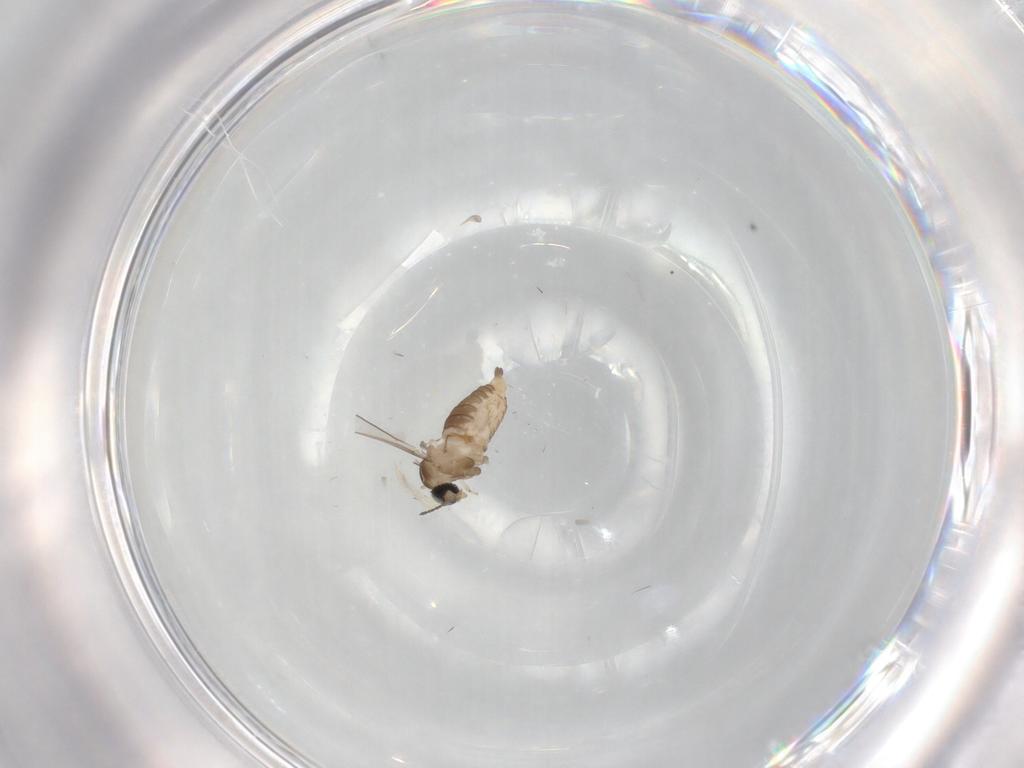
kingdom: Animalia
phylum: Arthropoda
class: Insecta
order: Diptera
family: Cecidomyiidae
